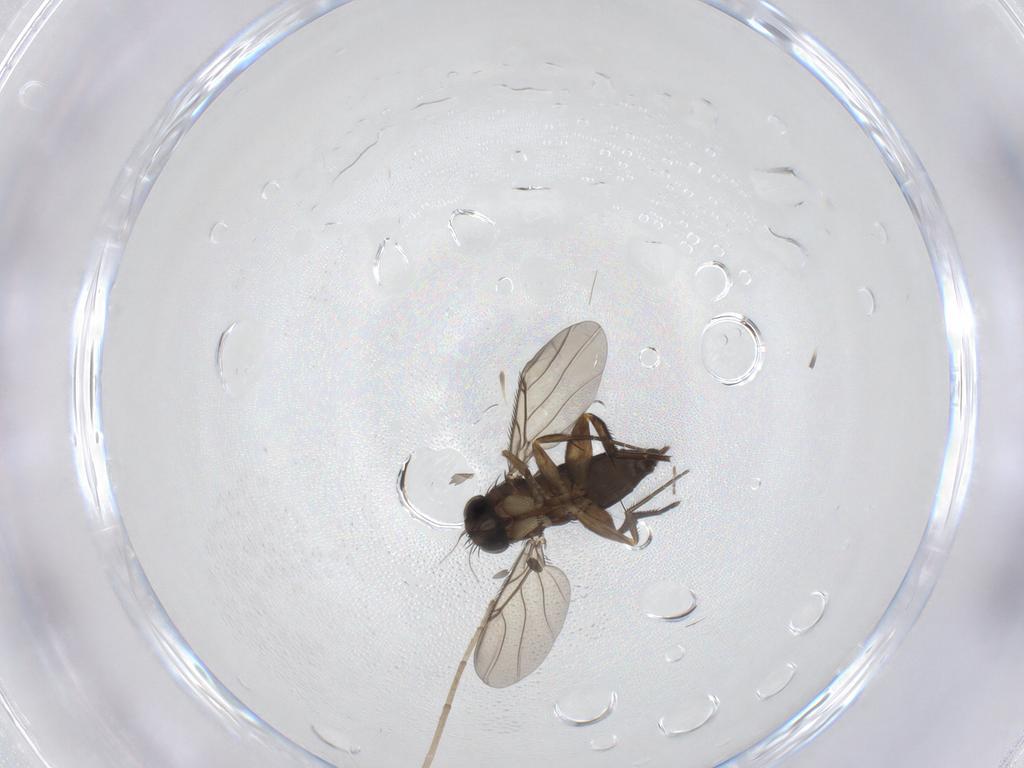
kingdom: Animalia
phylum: Arthropoda
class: Insecta
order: Diptera
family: Phoridae
